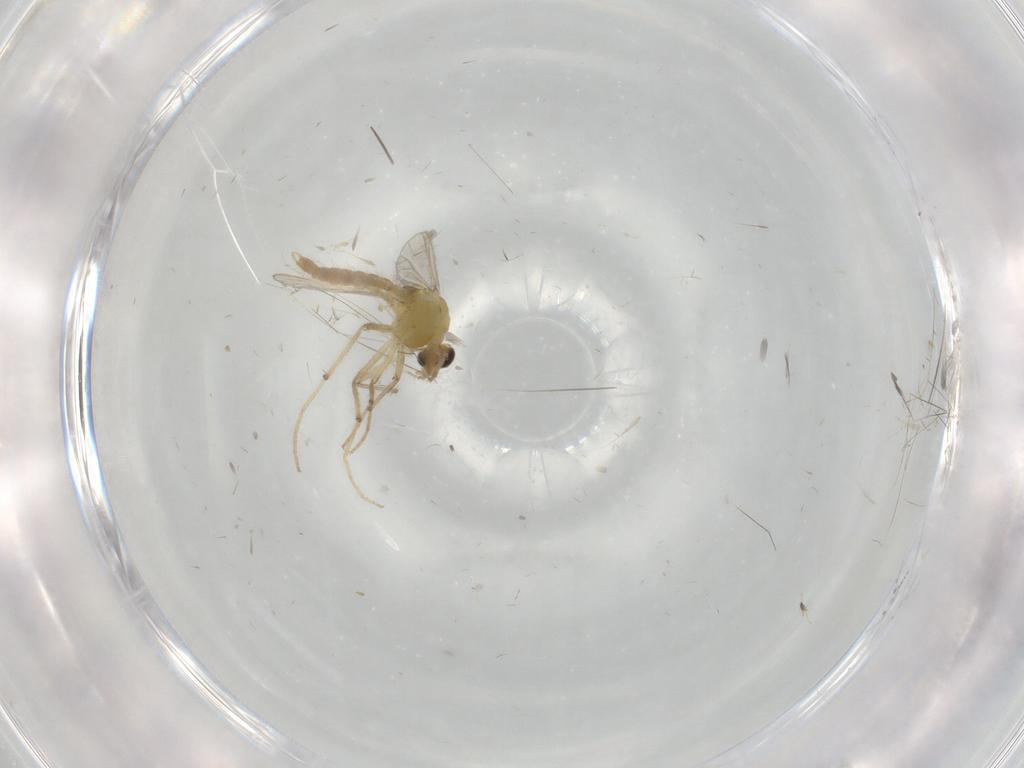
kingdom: Animalia
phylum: Arthropoda
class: Insecta
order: Diptera
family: Chironomidae
